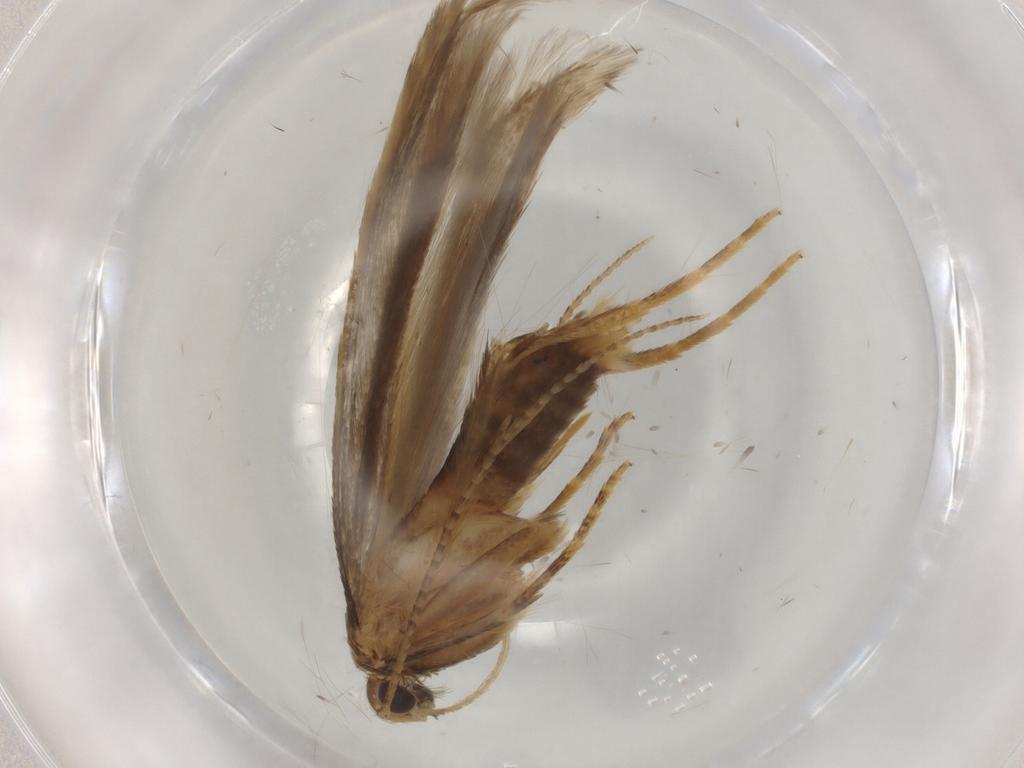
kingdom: Animalia
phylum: Arthropoda
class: Insecta
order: Lepidoptera
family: Gelechiidae
